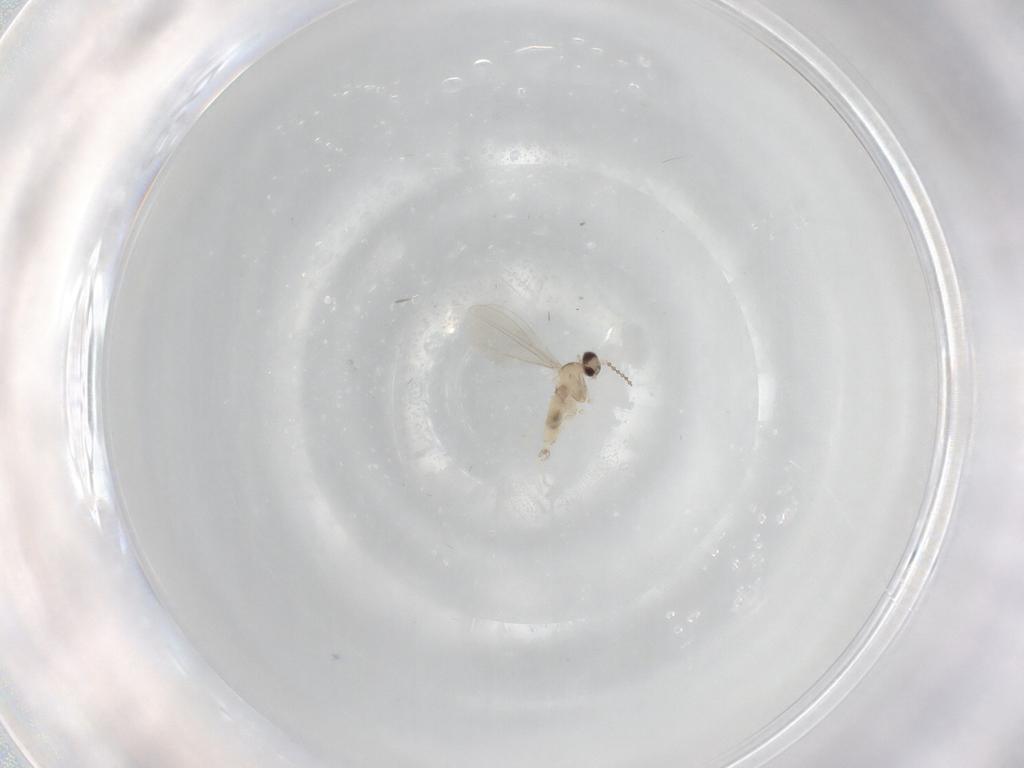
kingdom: Animalia
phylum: Arthropoda
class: Insecta
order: Diptera
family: Cecidomyiidae
